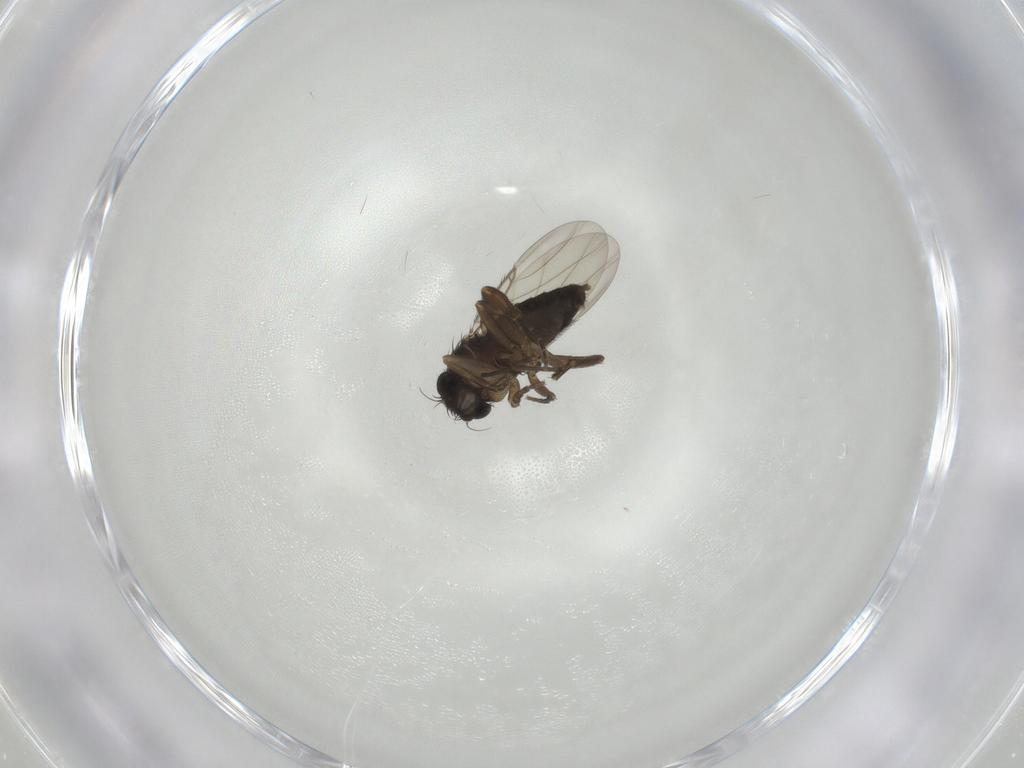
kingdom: Animalia
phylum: Arthropoda
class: Insecta
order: Diptera
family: Phoridae
